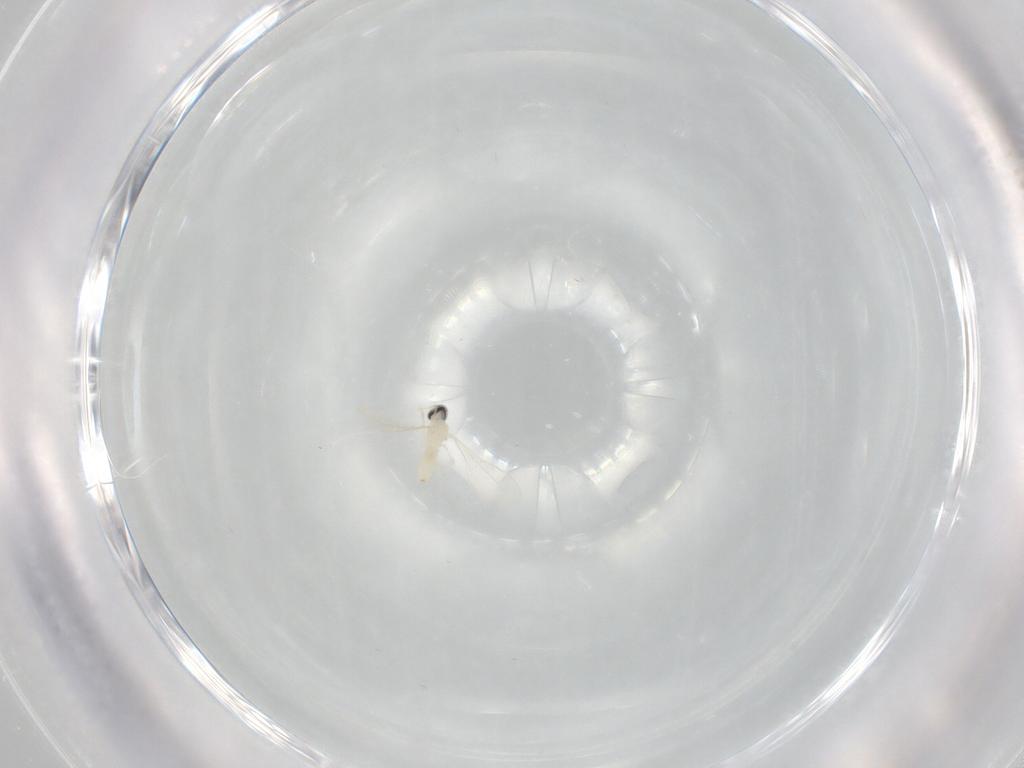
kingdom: Animalia
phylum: Arthropoda
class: Insecta
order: Diptera
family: Cecidomyiidae
